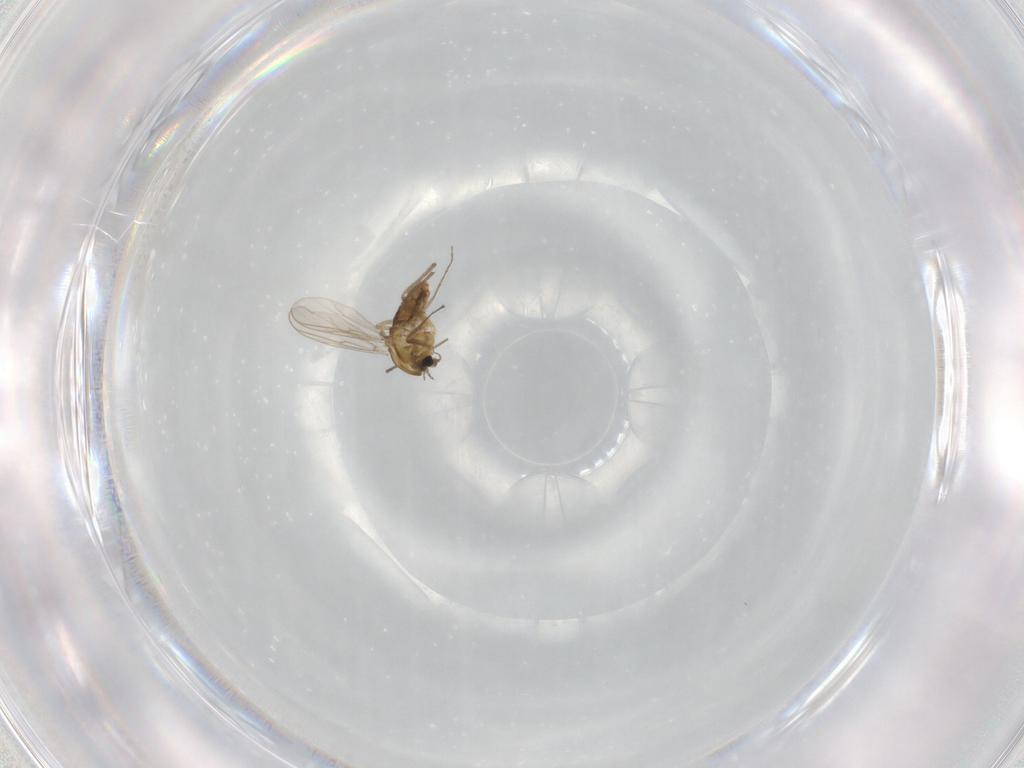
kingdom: Animalia
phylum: Arthropoda
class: Insecta
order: Diptera
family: Chironomidae
